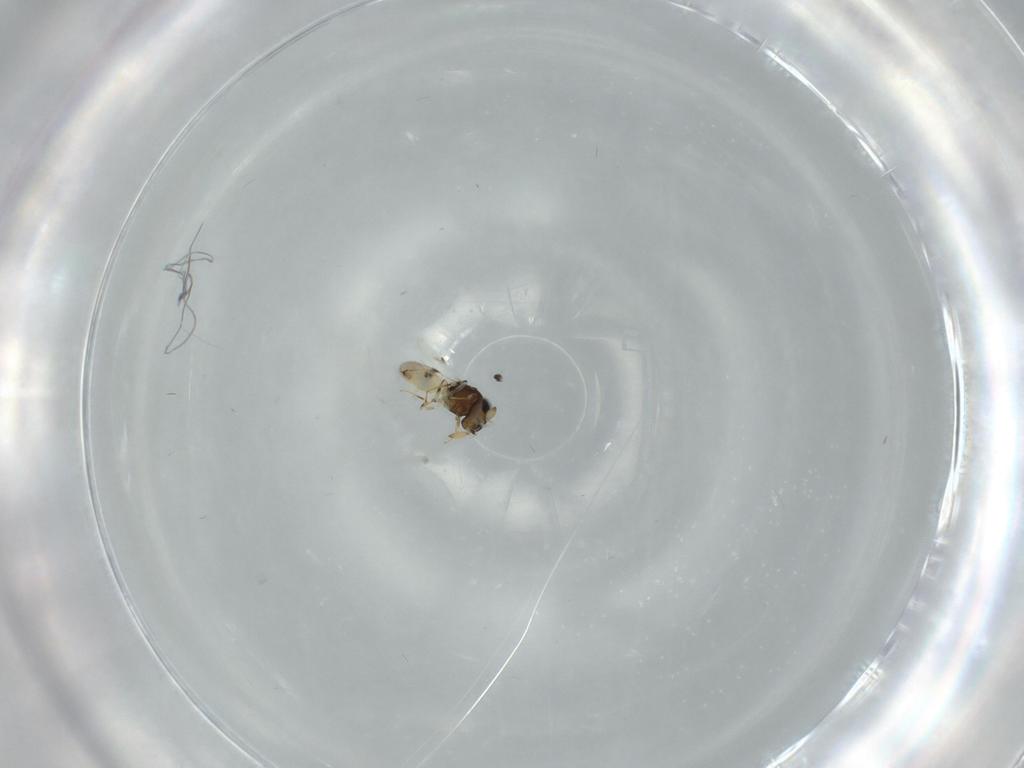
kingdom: Animalia
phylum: Arthropoda
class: Insecta
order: Hymenoptera
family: Scelionidae
